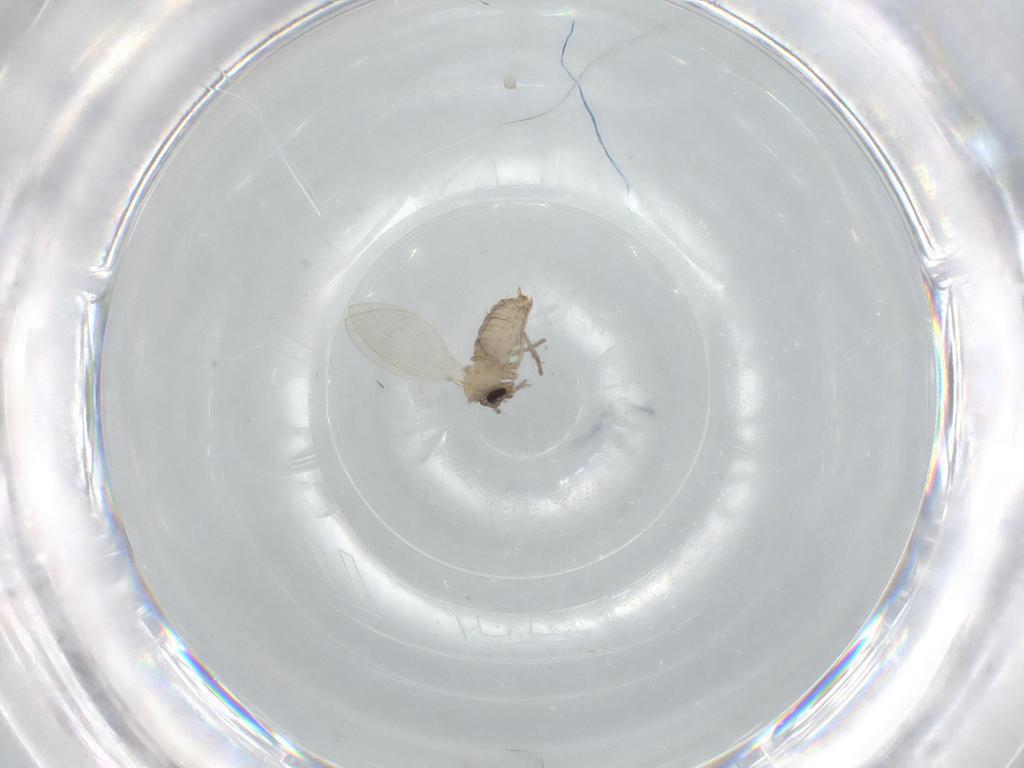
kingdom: Animalia
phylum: Arthropoda
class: Insecta
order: Diptera
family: Psychodidae
